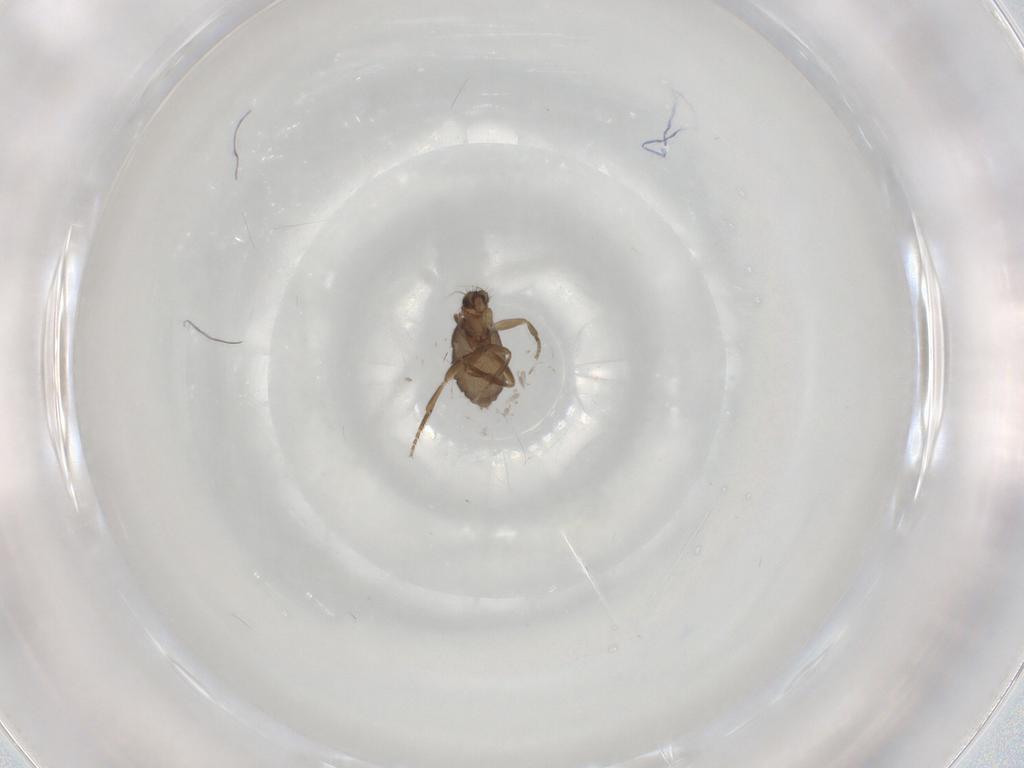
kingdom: Animalia
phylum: Arthropoda
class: Insecta
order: Diptera
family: Phoridae
